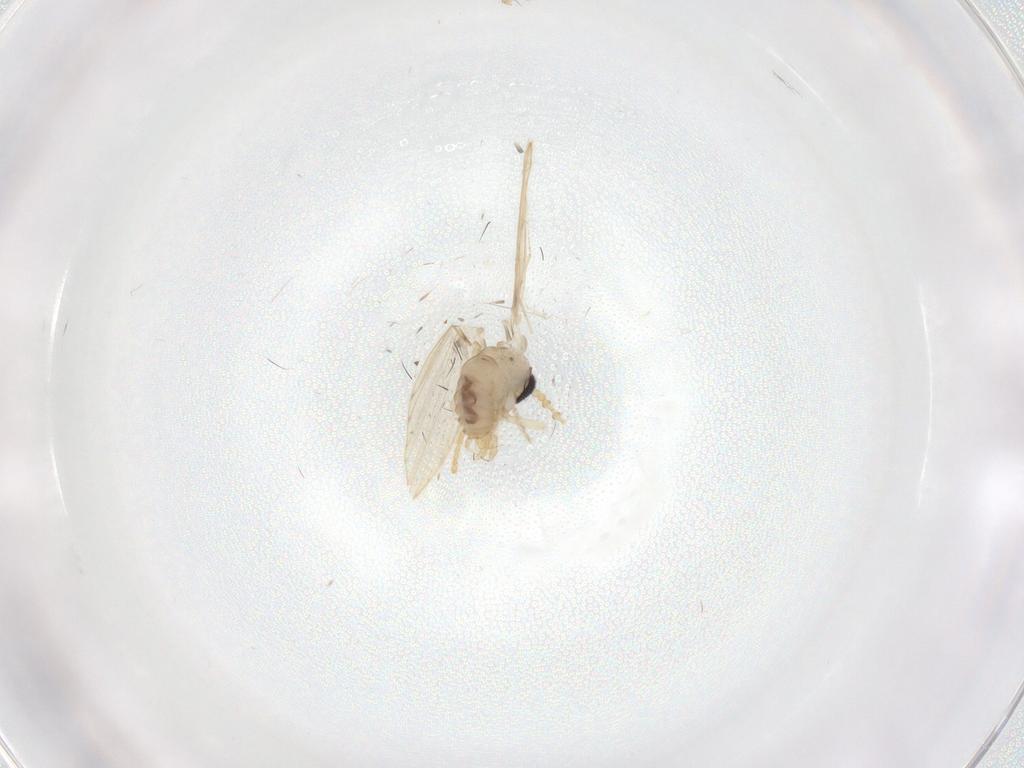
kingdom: Animalia
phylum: Arthropoda
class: Insecta
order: Diptera
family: Psychodidae
